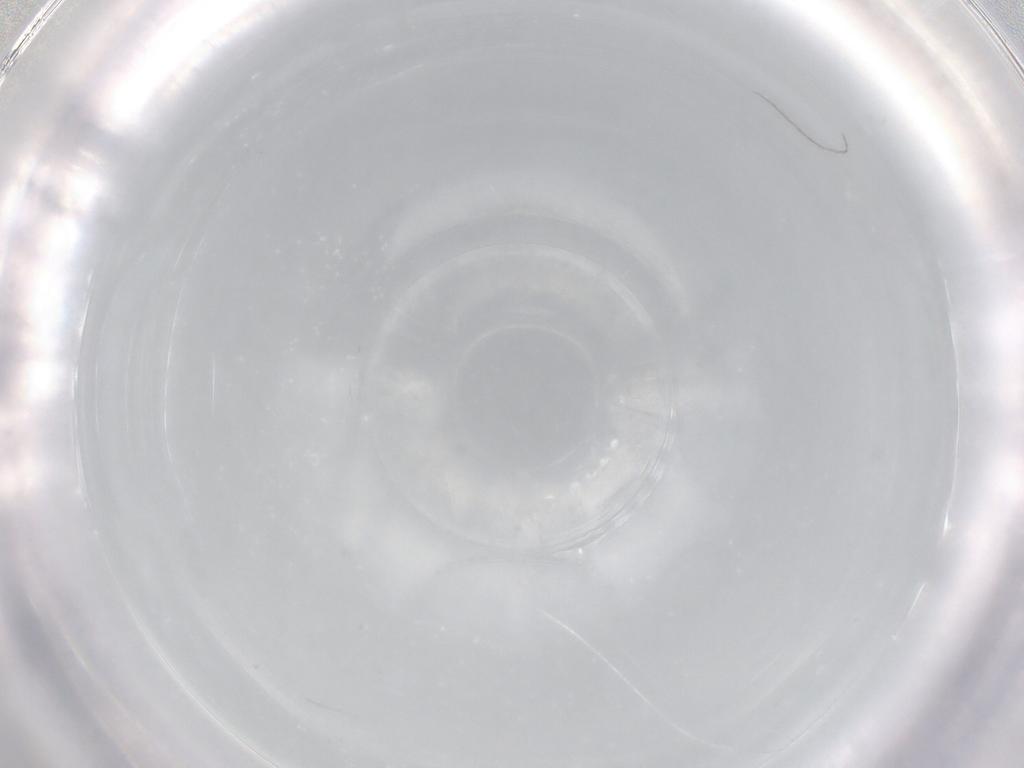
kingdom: Animalia
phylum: Arthropoda
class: Insecta
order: Diptera
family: Cecidomyiidae
